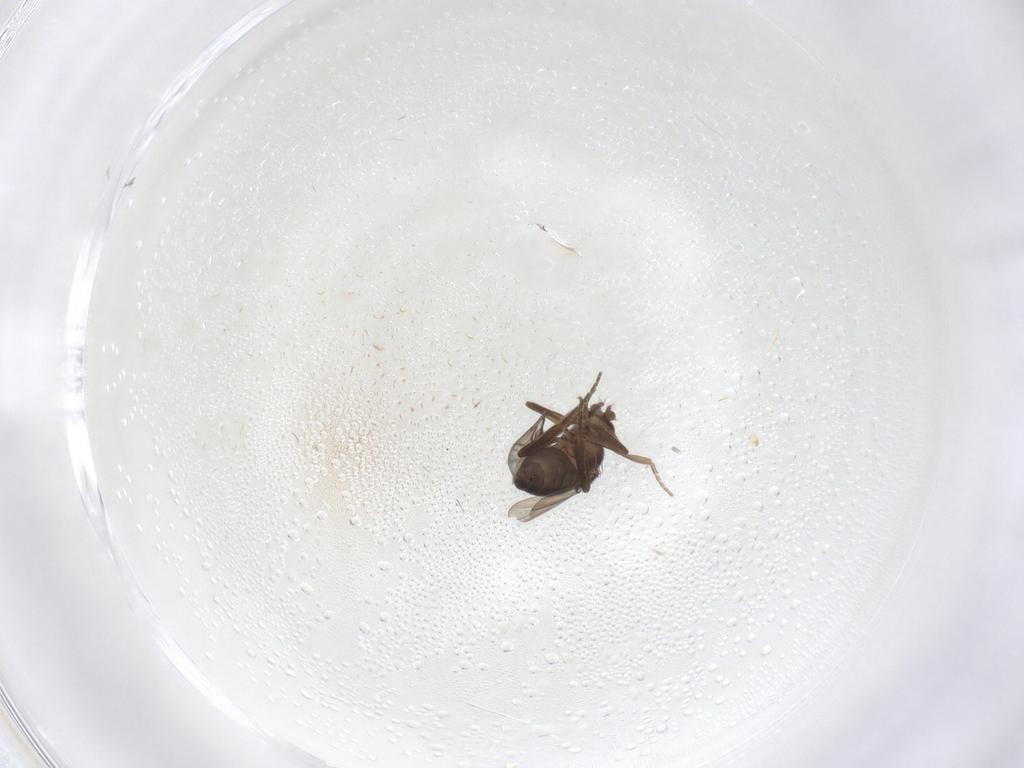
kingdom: Animalia
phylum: Arthropoda
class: Insecta
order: Diptera
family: Phoridae
